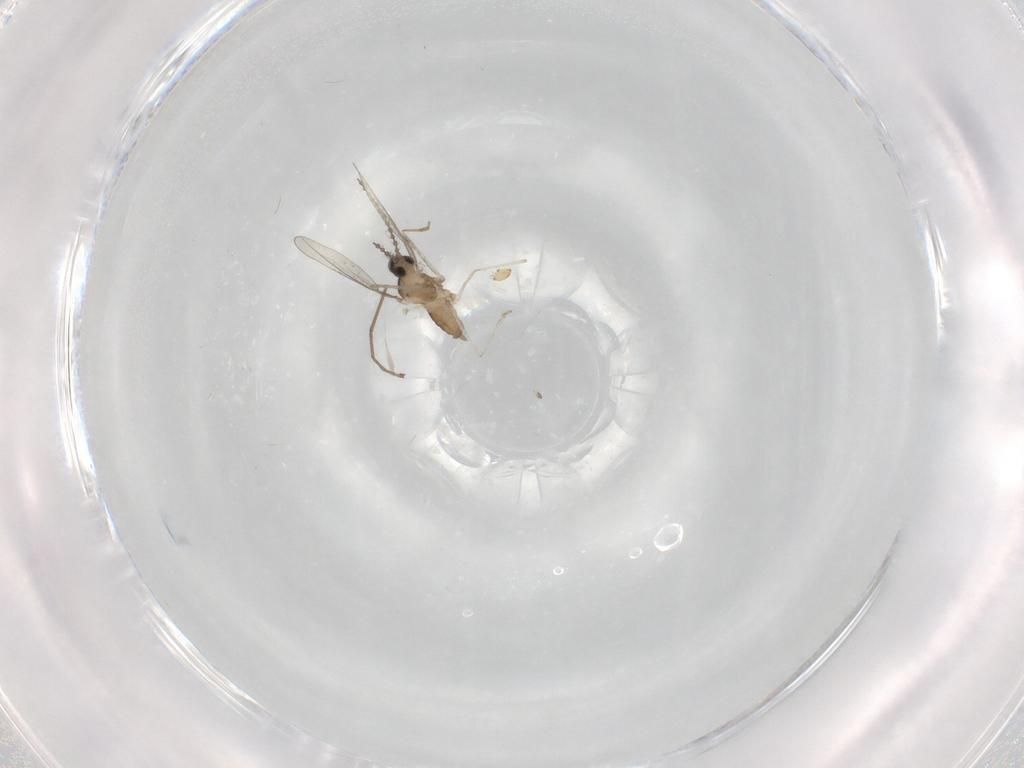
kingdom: Animalia
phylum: Arthropoda
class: Insecta
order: Diptera
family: Cecidomyiidae
